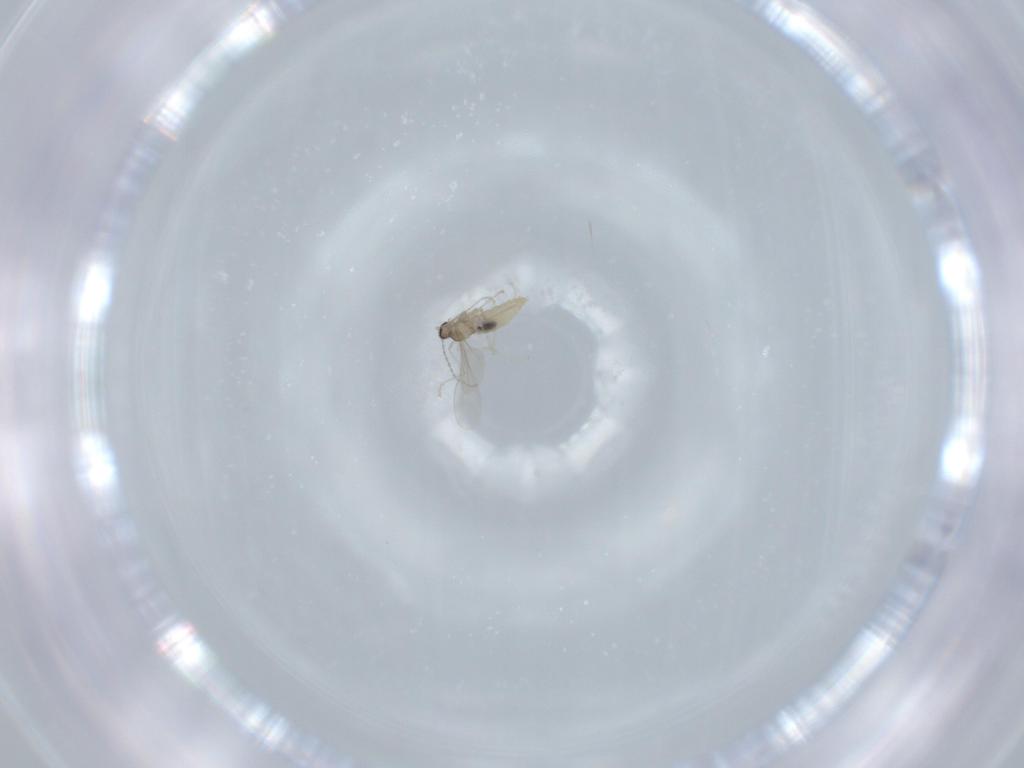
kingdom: Animalia
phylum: Arthropoda
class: Insecta
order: Diptera
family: Cecidomyiidae
